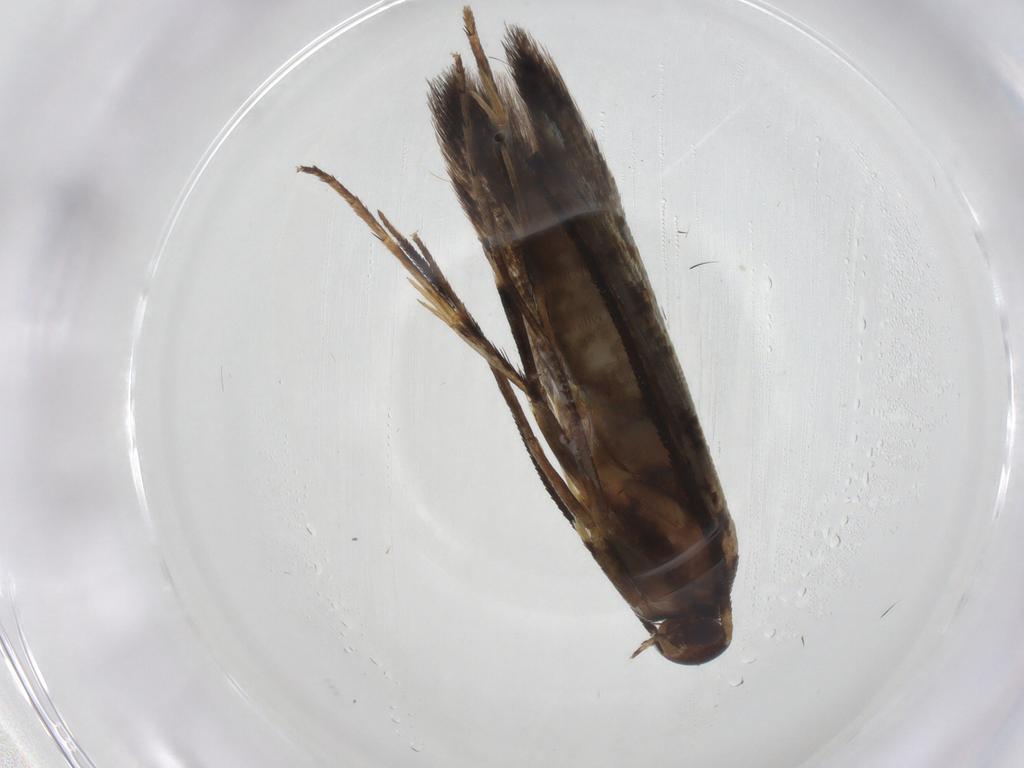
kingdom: Animalia
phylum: Arthropoda
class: Insecta
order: Lepidoptera
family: Heliodinidae
